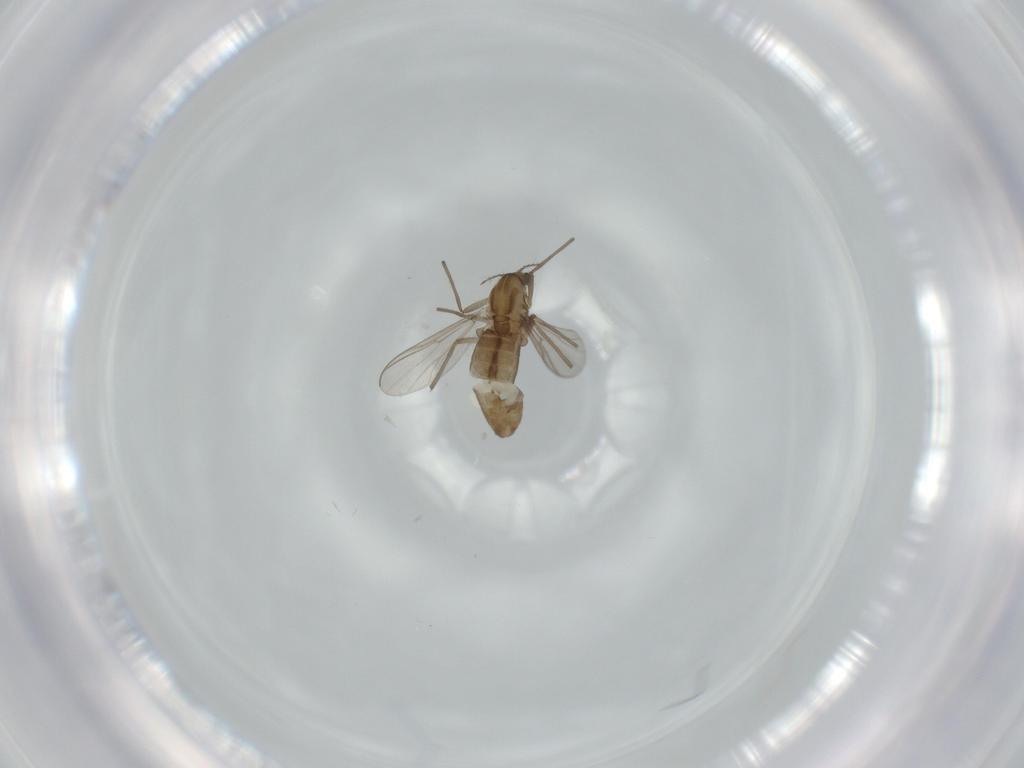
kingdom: Animalia
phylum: Arthropoda
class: Insecta
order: Diptera
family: Chironomidae
